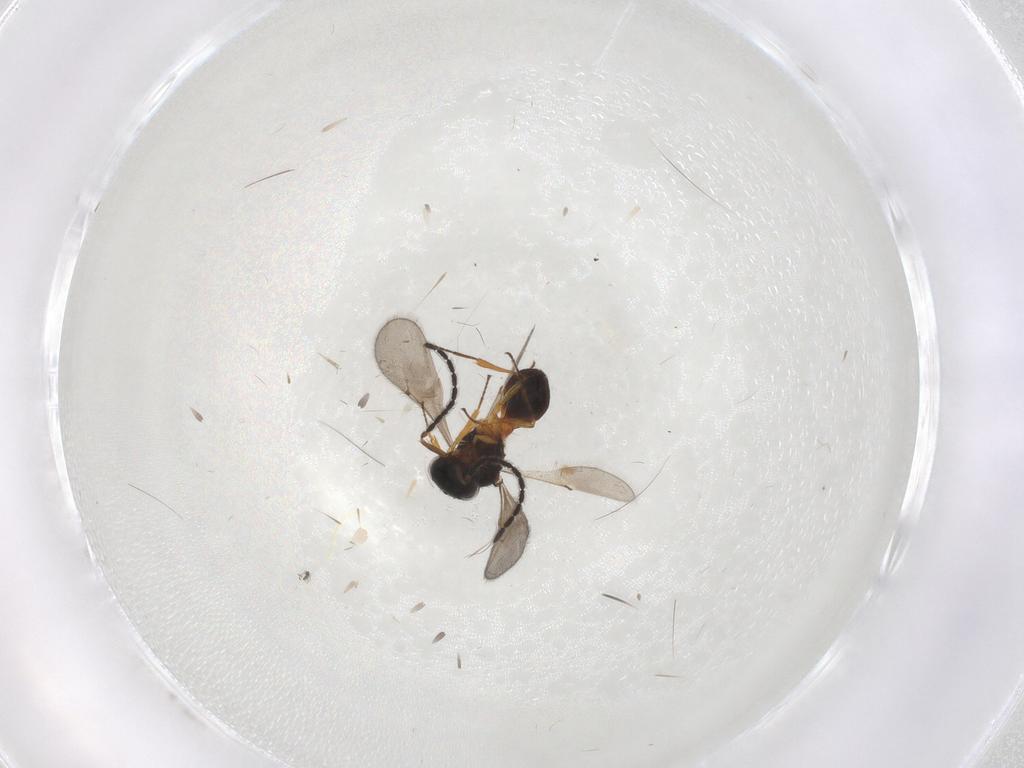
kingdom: Animalia
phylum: Arthropoda
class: Insecta
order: Hymenoptera
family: Scelionidae
